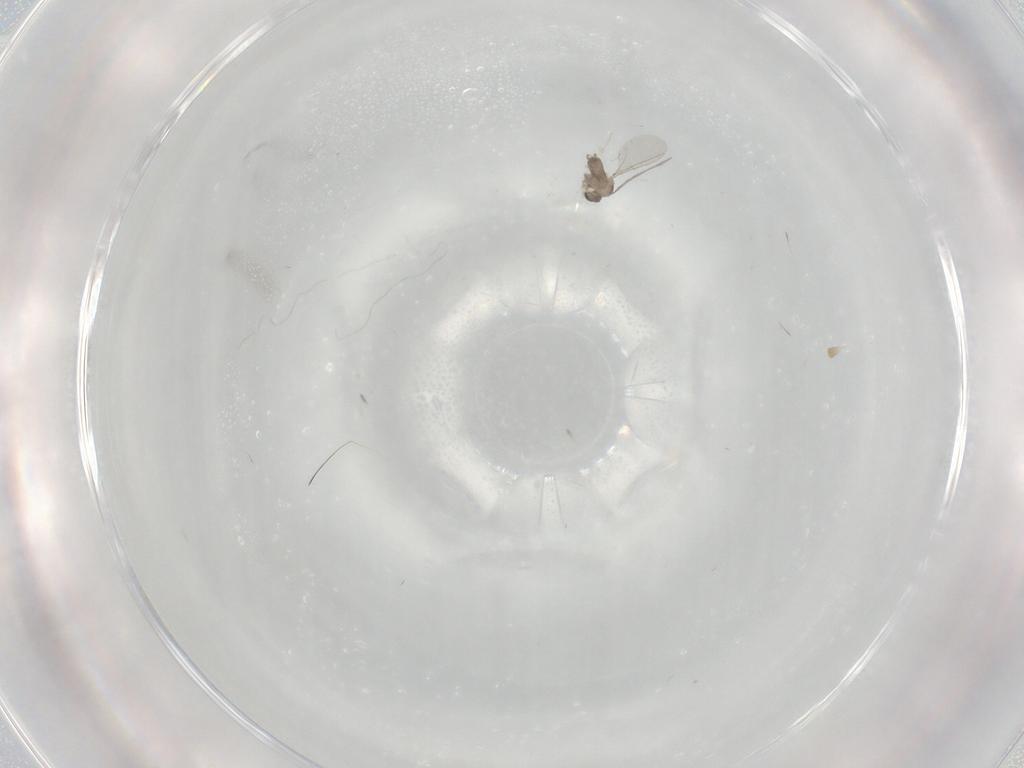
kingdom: Animalia
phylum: Arthropoda
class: Insecta
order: Diptera
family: Cecidomyiidae
